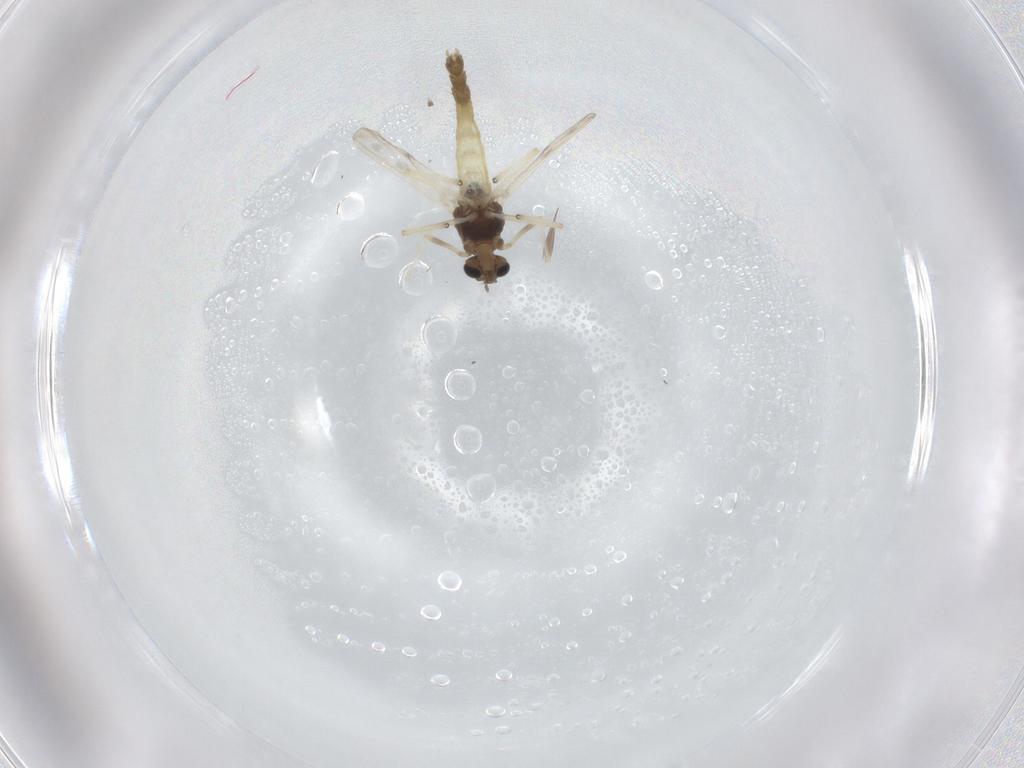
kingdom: Animalia
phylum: Arthropoda
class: Insecta
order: Diptera
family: Chironomidae
